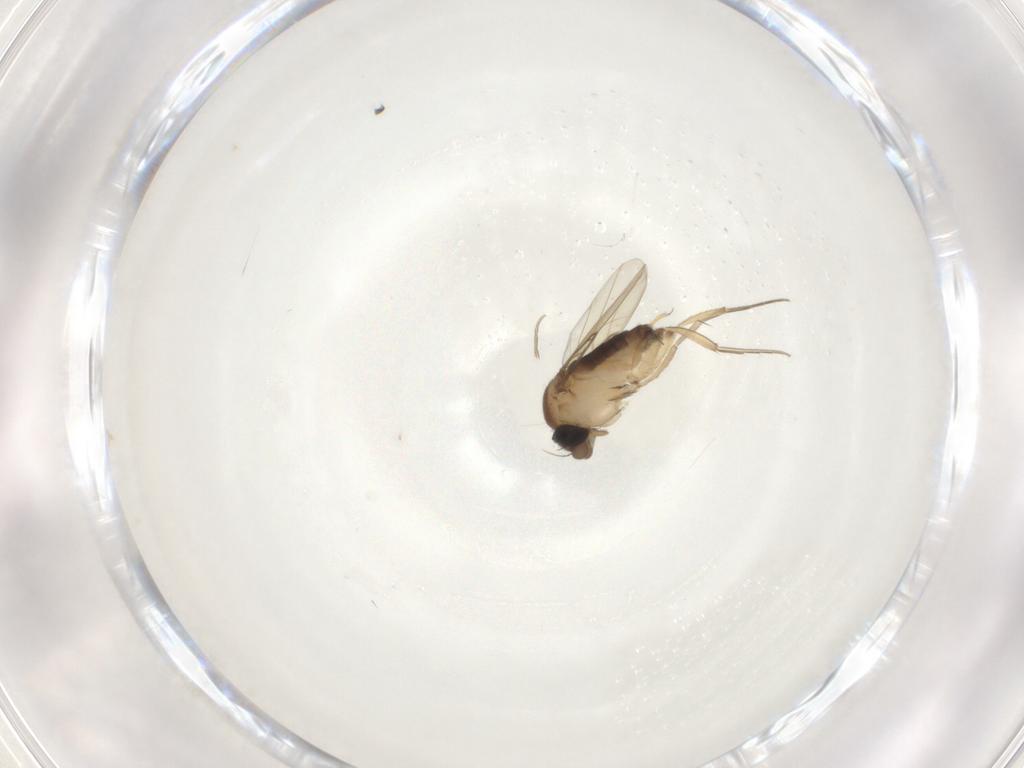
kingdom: Animalia
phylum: Arthropoda
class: Insecta
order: Diptera
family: Phoridae
